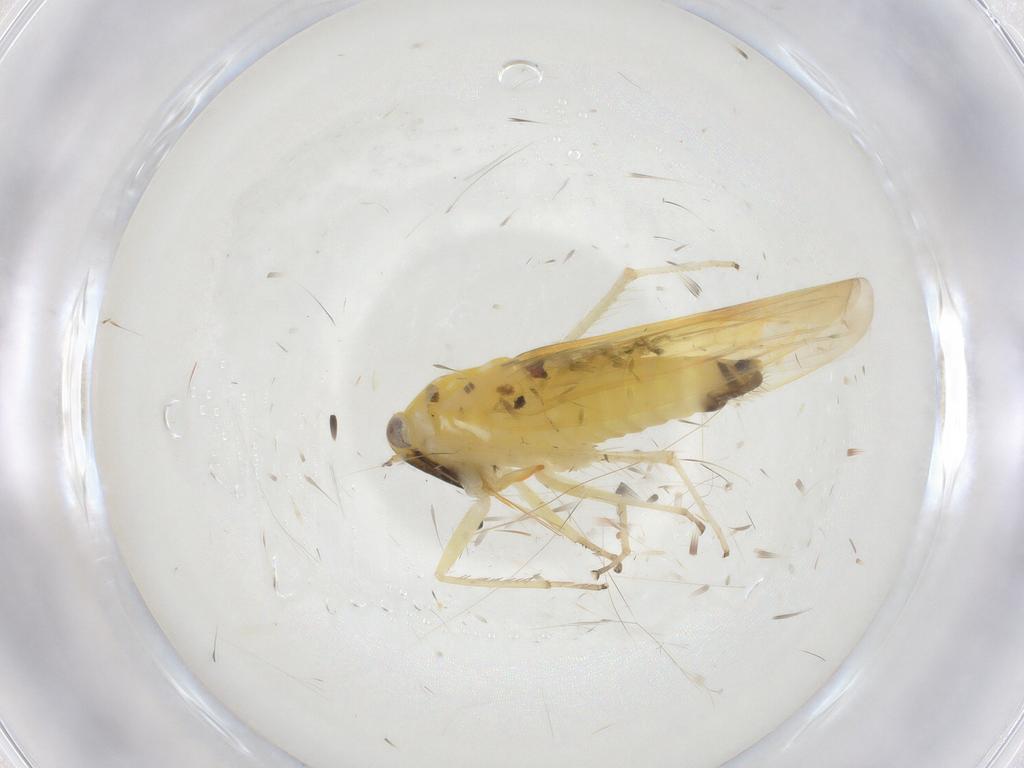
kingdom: Animalia
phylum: Arthropoda
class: Insecta
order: Hemiptera
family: Cicadellidae
